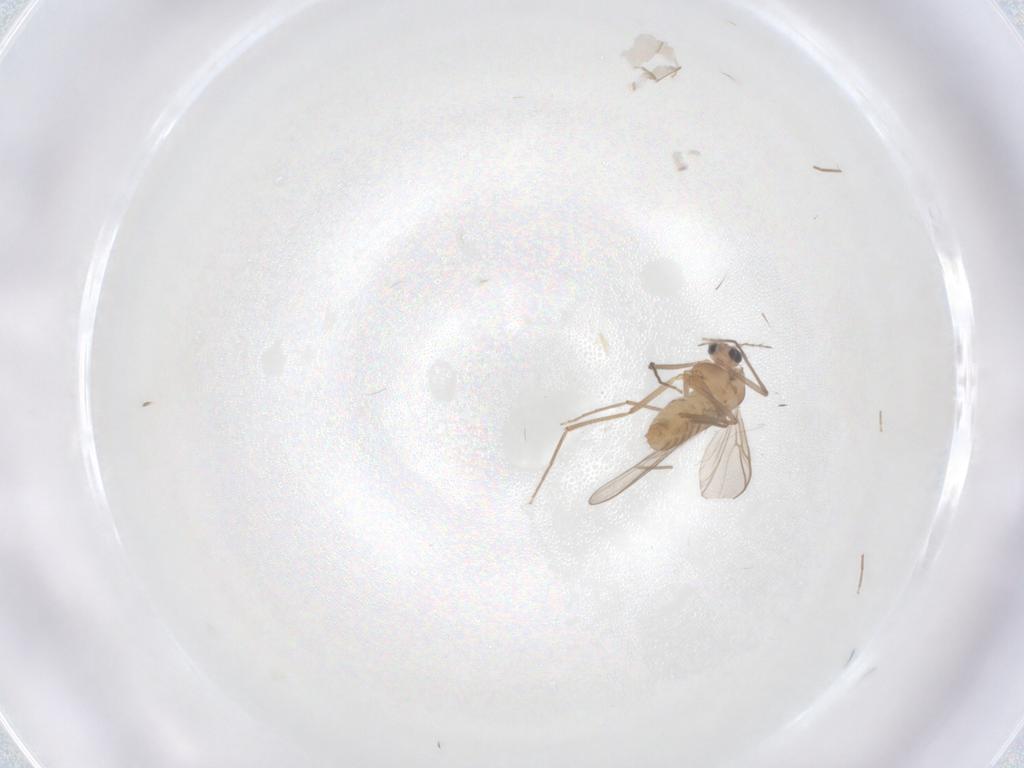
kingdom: Animalia
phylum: Arthropoda
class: Insecta
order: Diptera
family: Chironomidae
